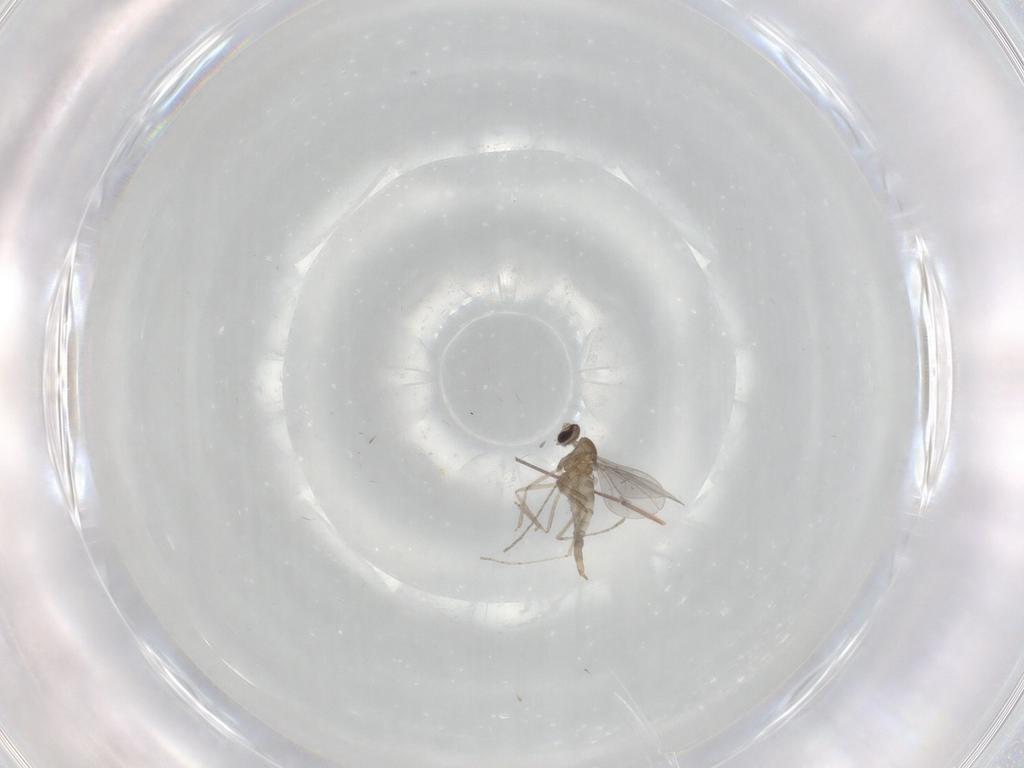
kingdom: Animalia
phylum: Arthropoda
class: Insecta
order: Diptera
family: Cecidomyiidae
